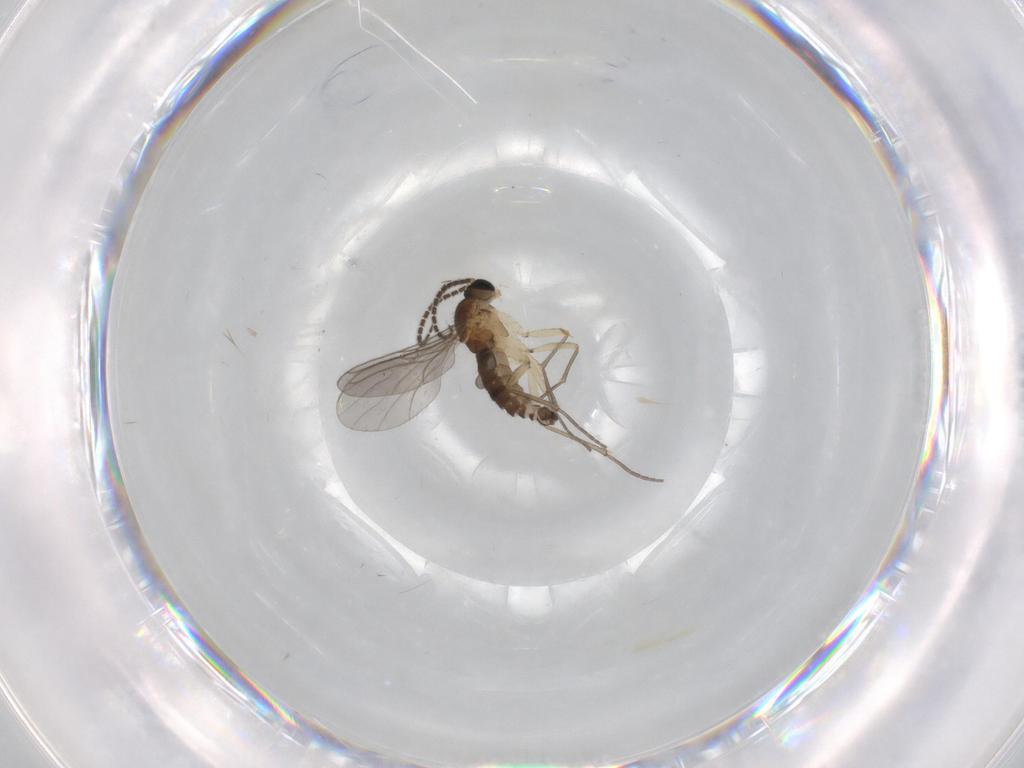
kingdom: Animalia
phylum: Arthropoda
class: Insecta
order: Diptera
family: Sciaridae
